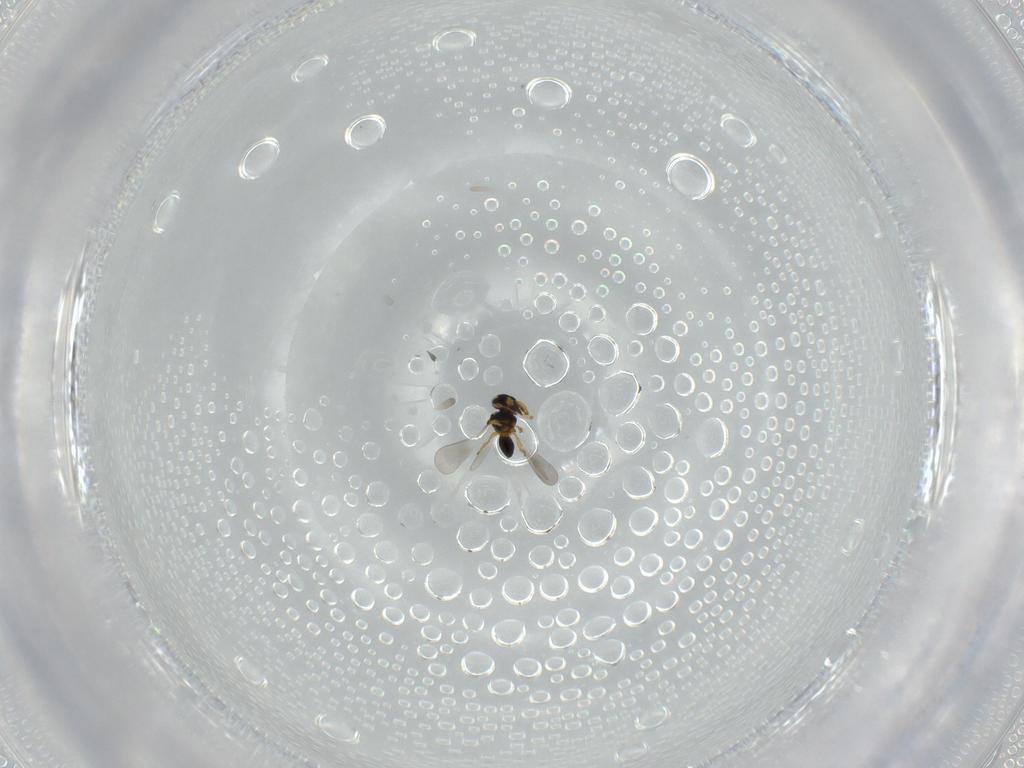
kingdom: Animalia
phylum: Arthropoda
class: Insecta
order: Hymenoptera
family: Platygastridae
